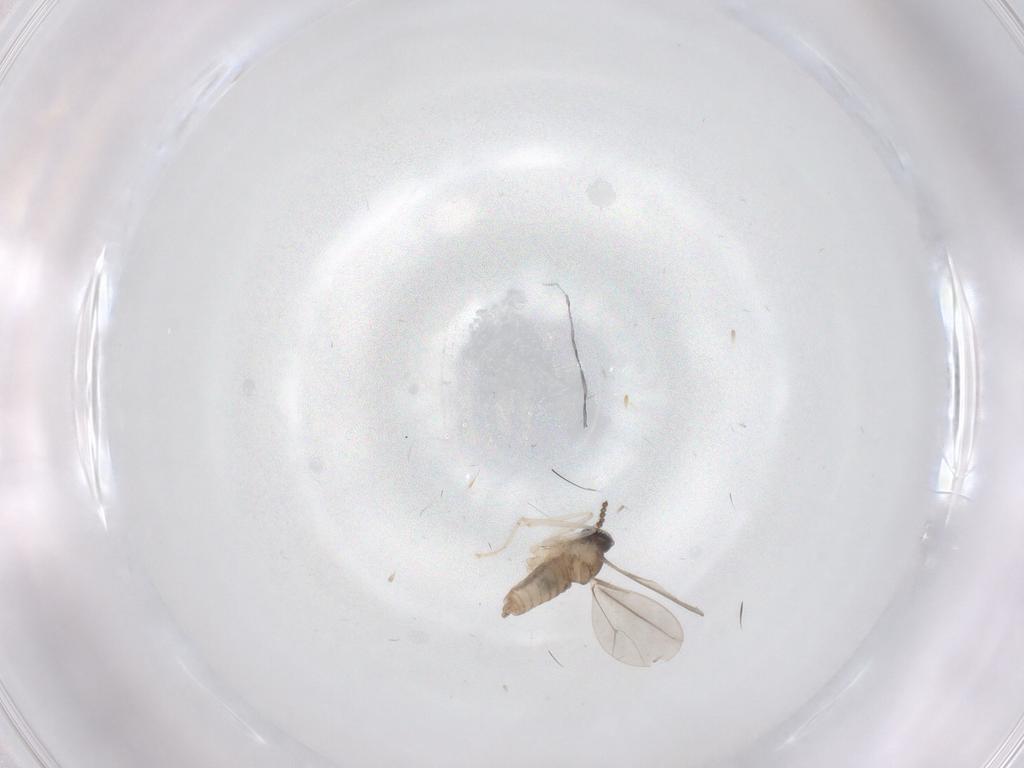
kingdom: Animalia
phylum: Arthropoda
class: Insecta
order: Diptera
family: Cecidomyiidae
